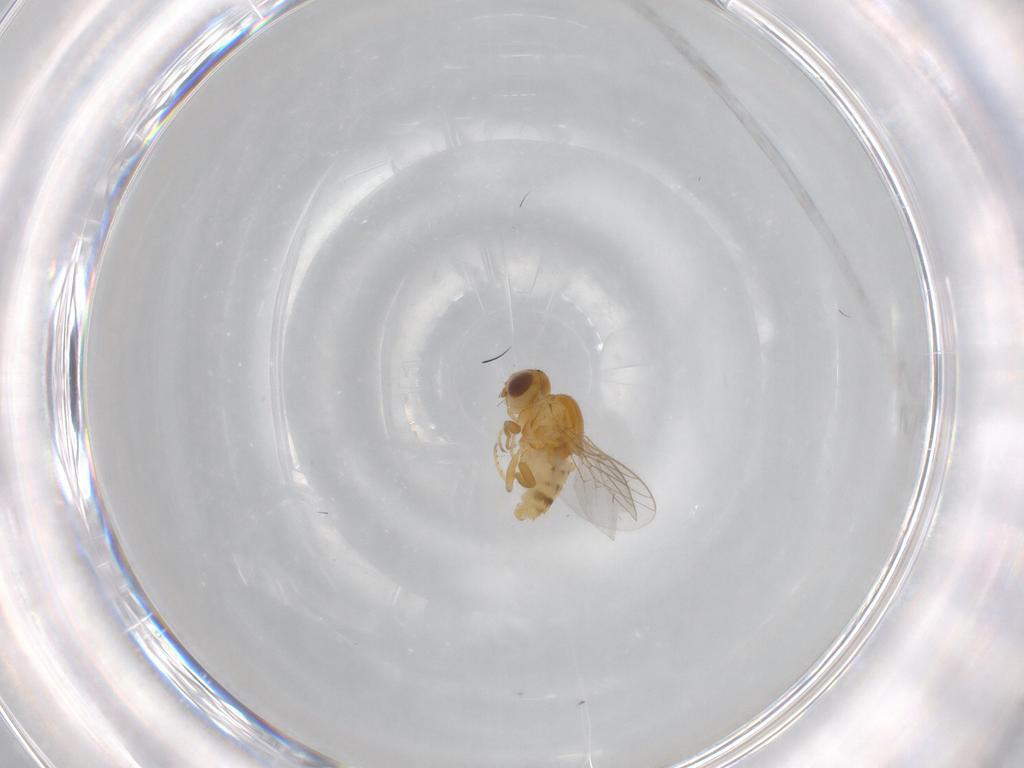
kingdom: Animalia
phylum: Arthropoda
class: Insecta
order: Diptera
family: Chloropidae
